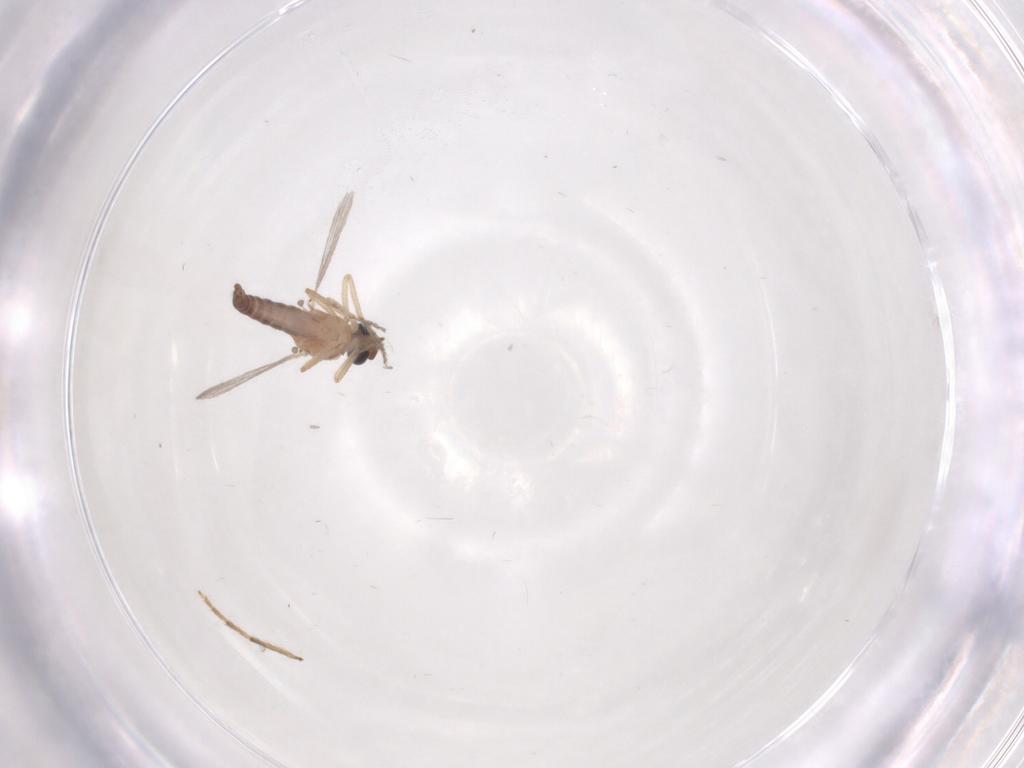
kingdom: Animalia
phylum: Arthropoda
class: Insecta
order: Diptera
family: Ceratopogonidae
